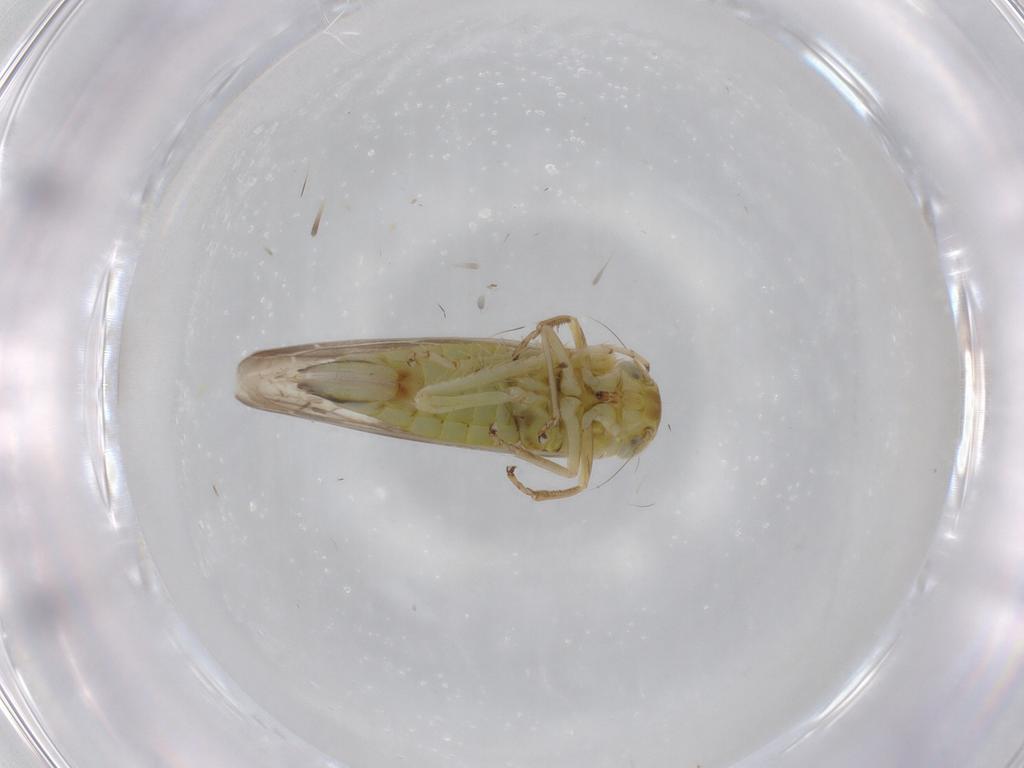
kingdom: Animalia
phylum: Arthropoda
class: Insecta
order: Hemiptera
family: Cicadellidae
